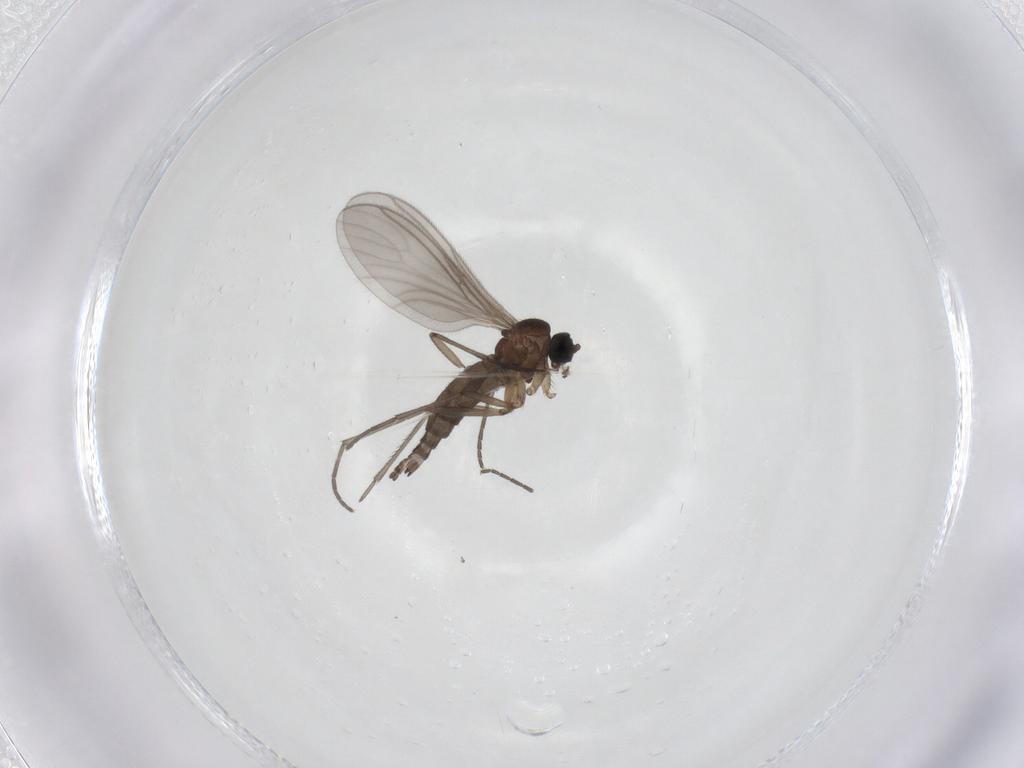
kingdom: Animalia
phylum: Arthropoda
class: Insecta
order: Diptera
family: Sciaridae
